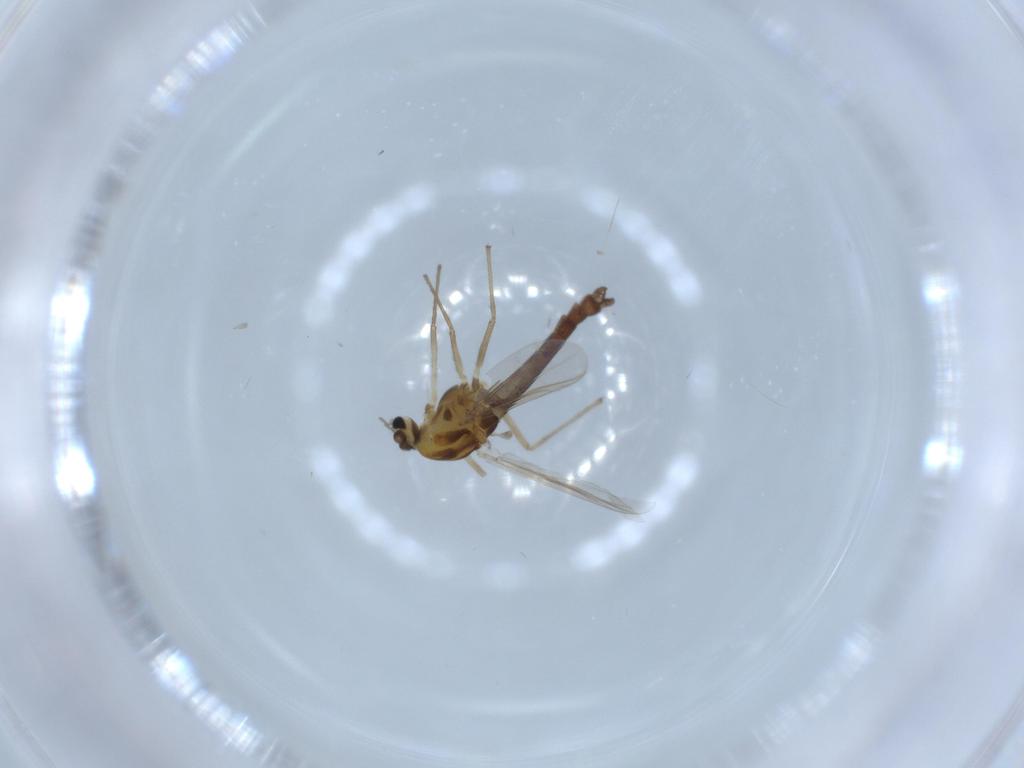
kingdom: Animalia
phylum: Arthropoda
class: Insecta
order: Diptera
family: Chironomidae
